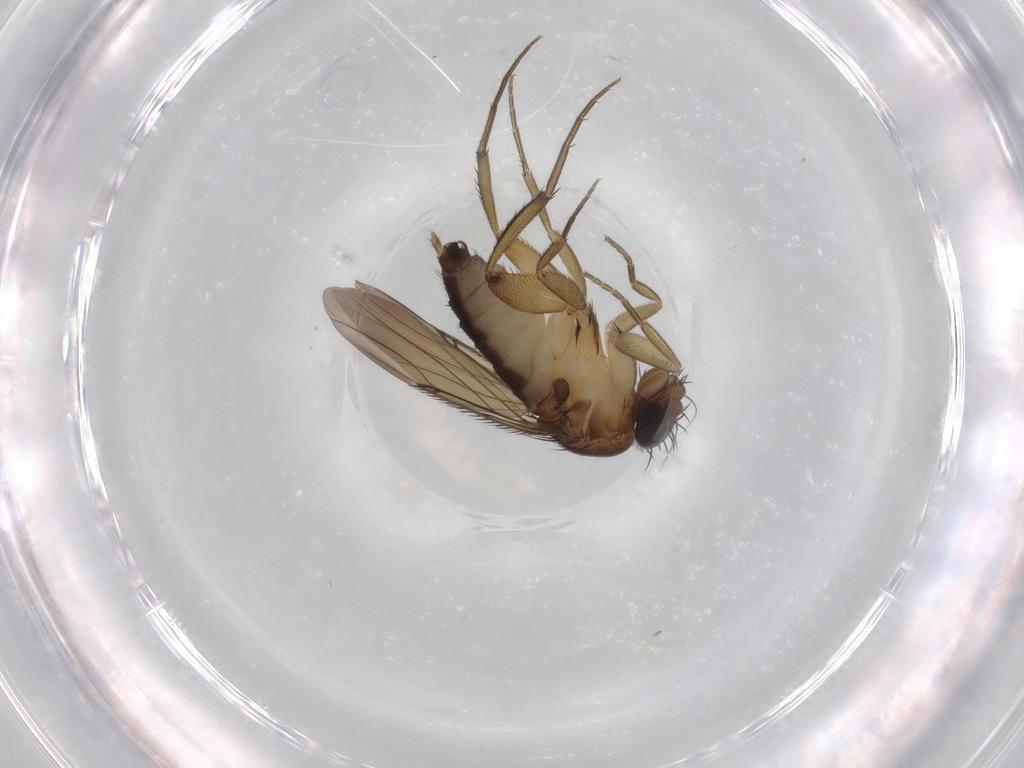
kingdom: Animalia
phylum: Arthropoda
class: Insecta
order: Diptera
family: Phoridae
